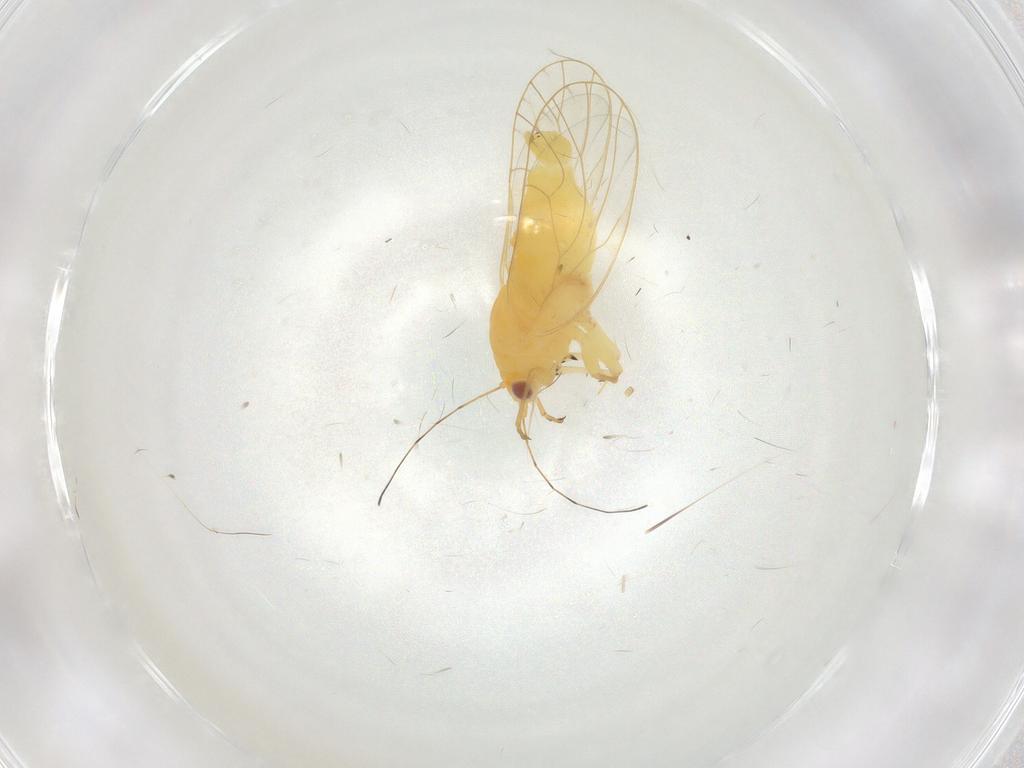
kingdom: Animalia
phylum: Arthropoda
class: Insecta
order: Hemiptera
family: Psyllidae
